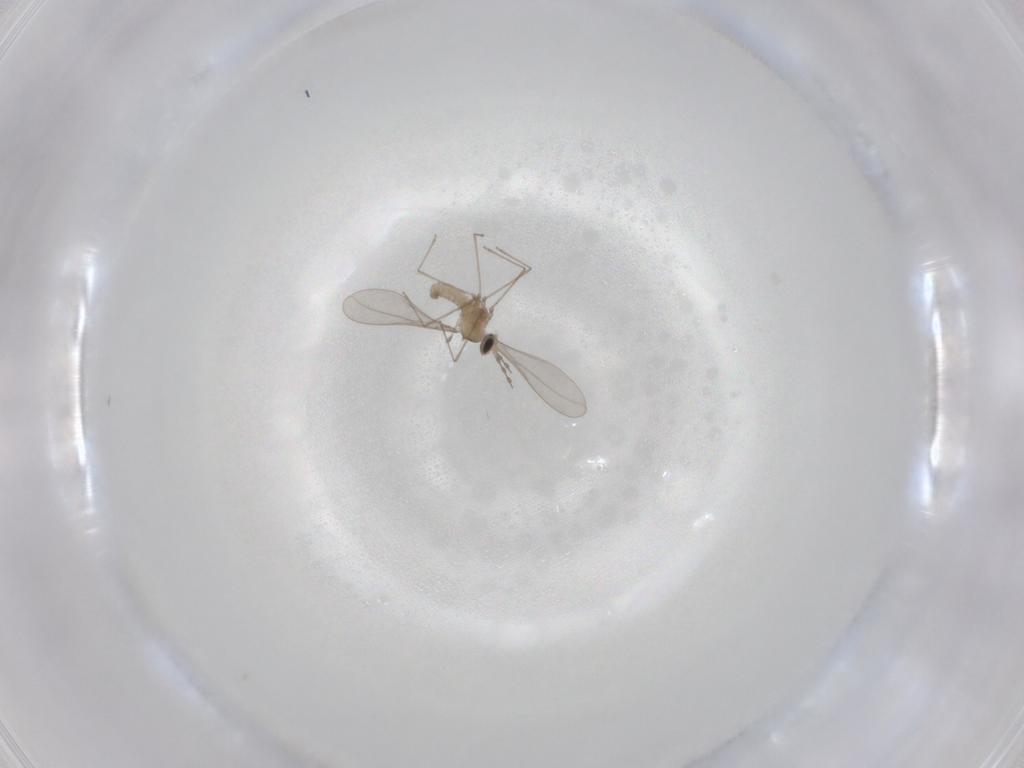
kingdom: Animalia
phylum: Arthropoda
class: Insecta
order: Diptera
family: Cecidomyiidae
